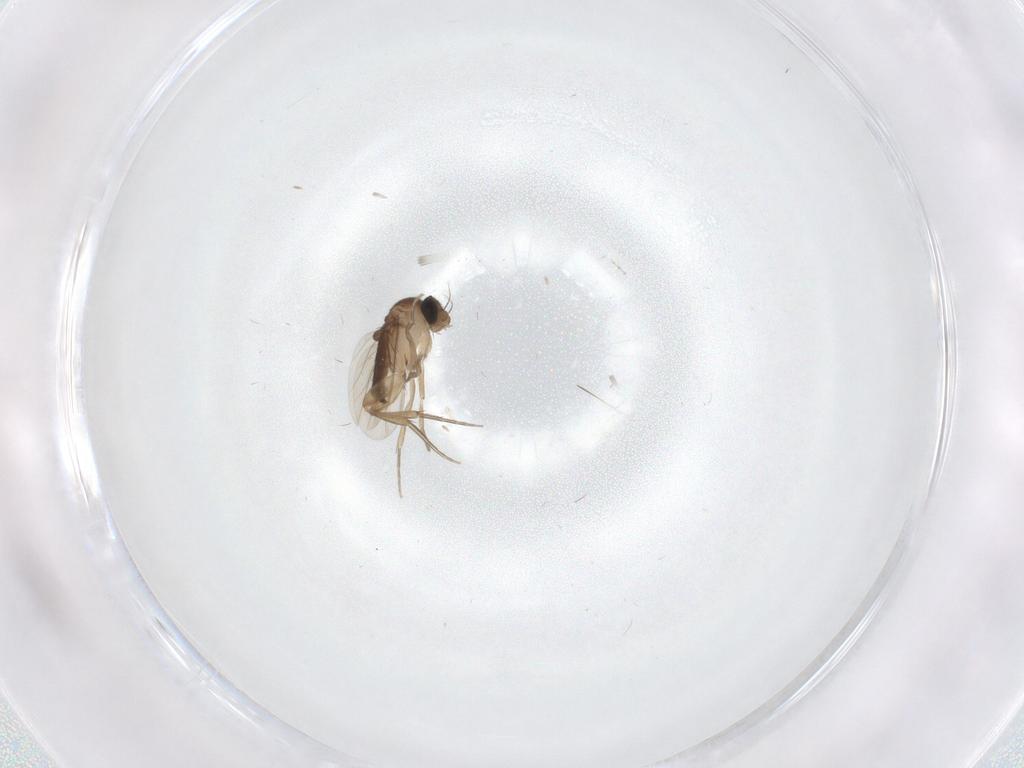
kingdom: Animalia
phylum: Arthropoda
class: Insecta
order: Diptera
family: Phoridae
